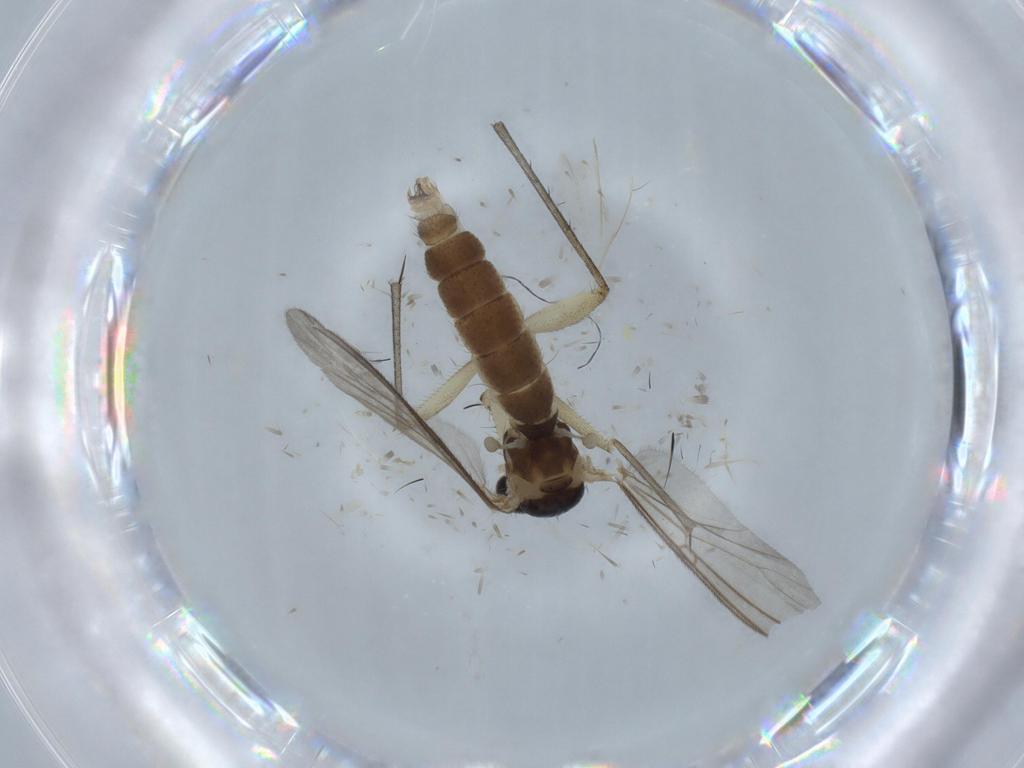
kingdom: Animalia
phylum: Arthropoda
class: Insecta
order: Diptera
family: Mycetophilidae
